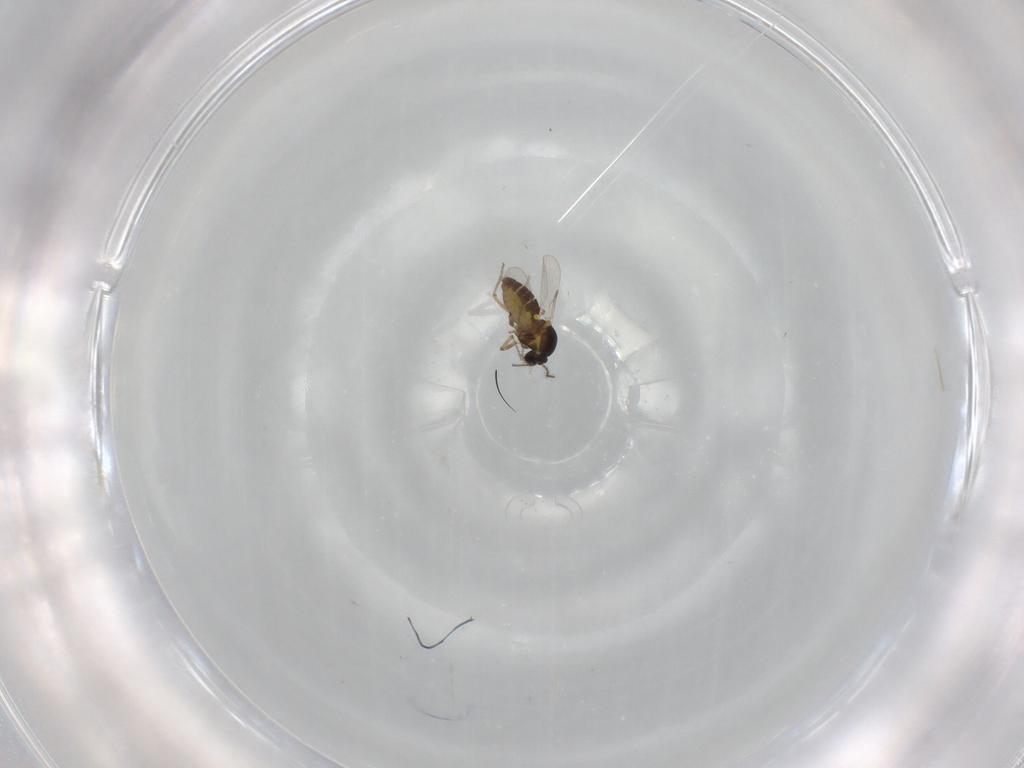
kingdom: Animalia
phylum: Arthropoda
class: Insecta
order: Diptera
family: Ceratopogonidae
